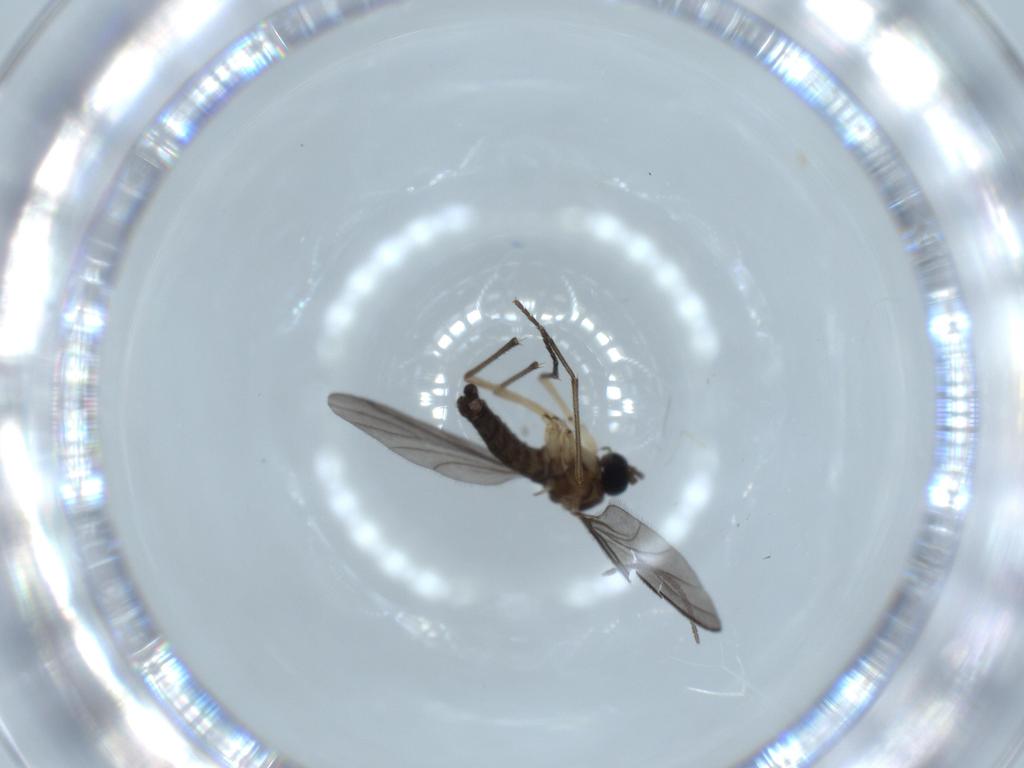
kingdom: Animalia
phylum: Arthropoda
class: Insecta
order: Diptera
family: Sciaridae
